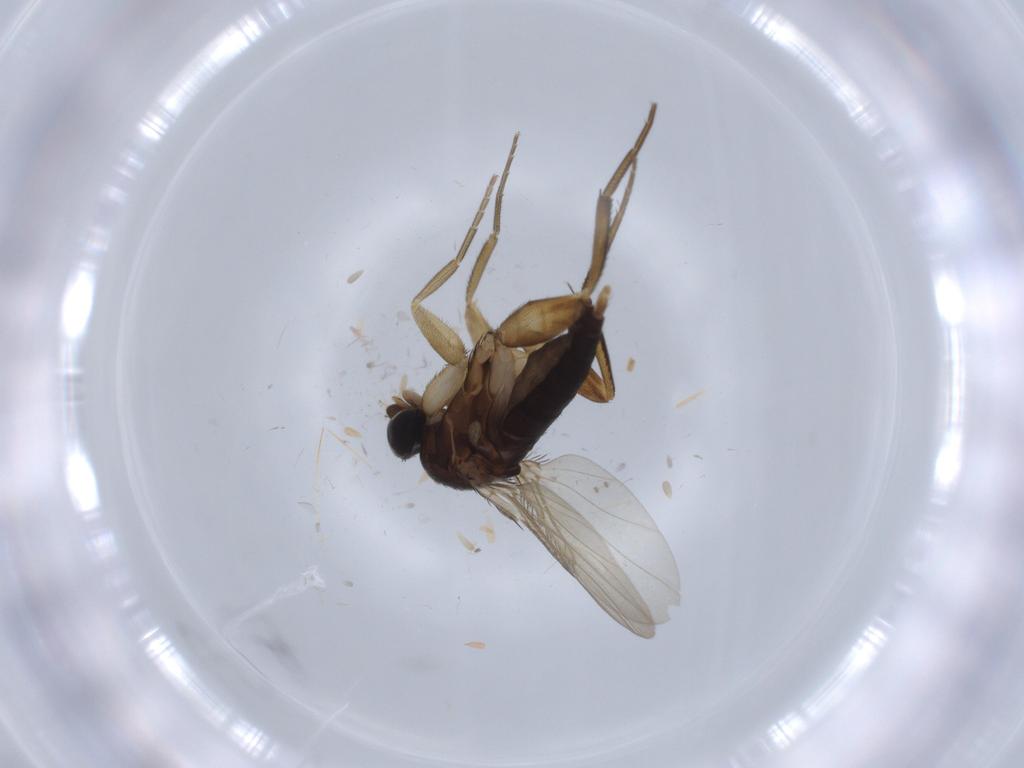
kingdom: Animalia
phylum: Arthropoda
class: Insecta
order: Diptera
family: Phoridae
